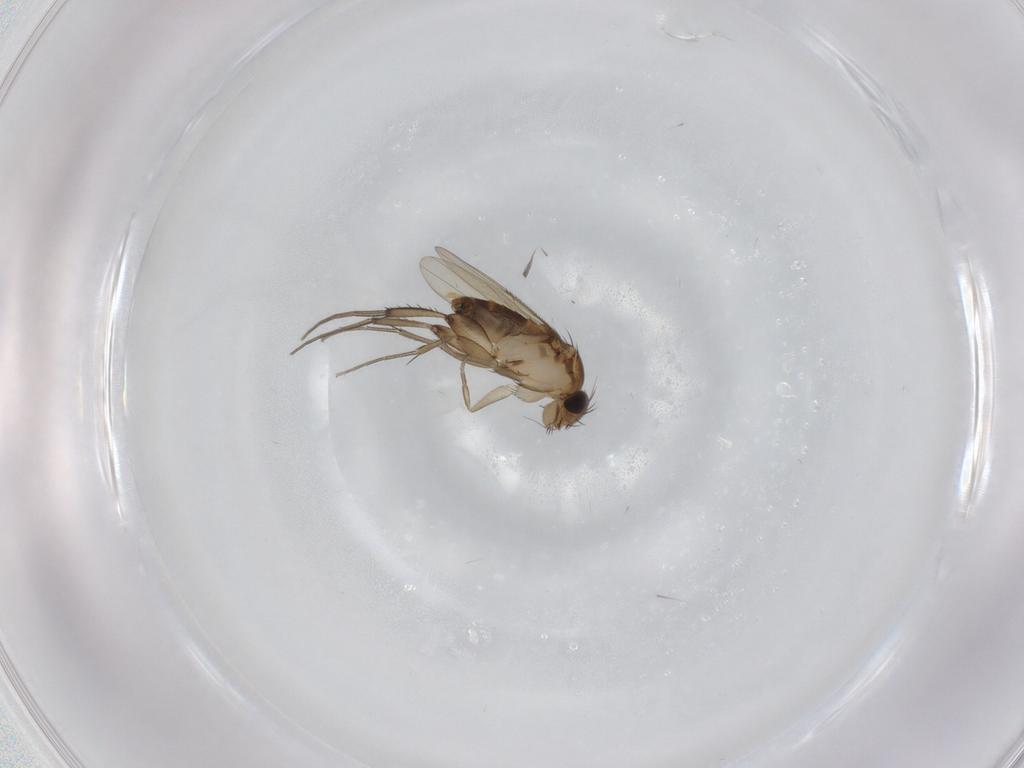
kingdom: Animalia
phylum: Arthropoda
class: Insecta
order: Diptera
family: Phoridae
